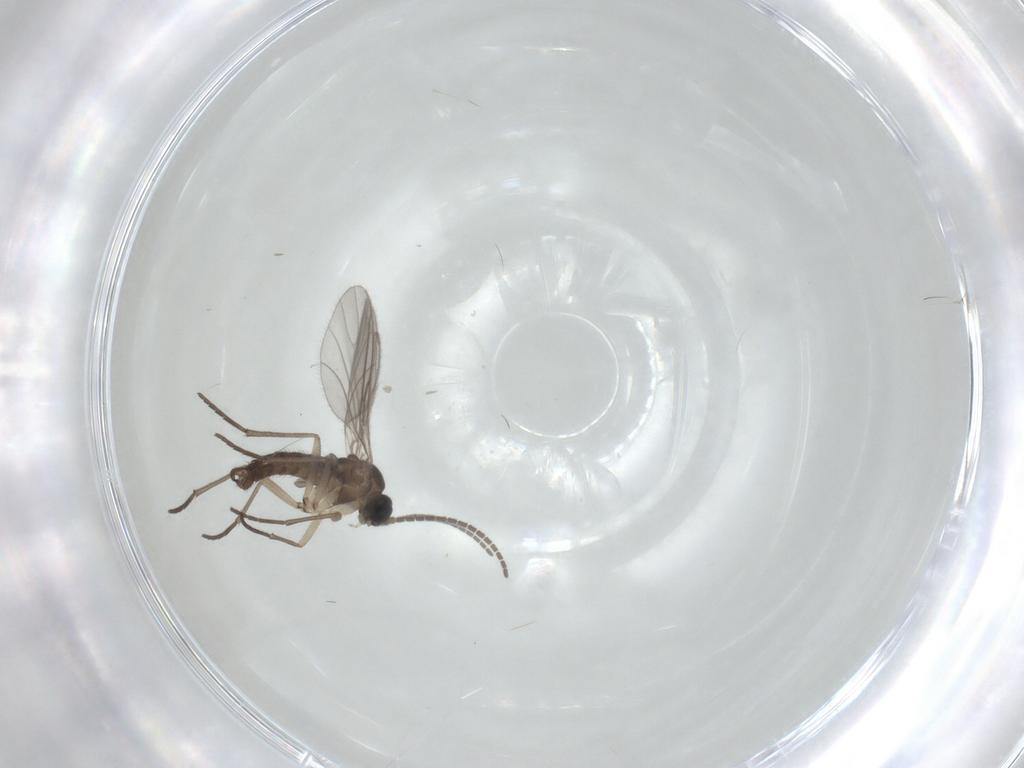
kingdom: Animalia
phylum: Arthropoda
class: Insecta
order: Diptera
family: Sciaridae
